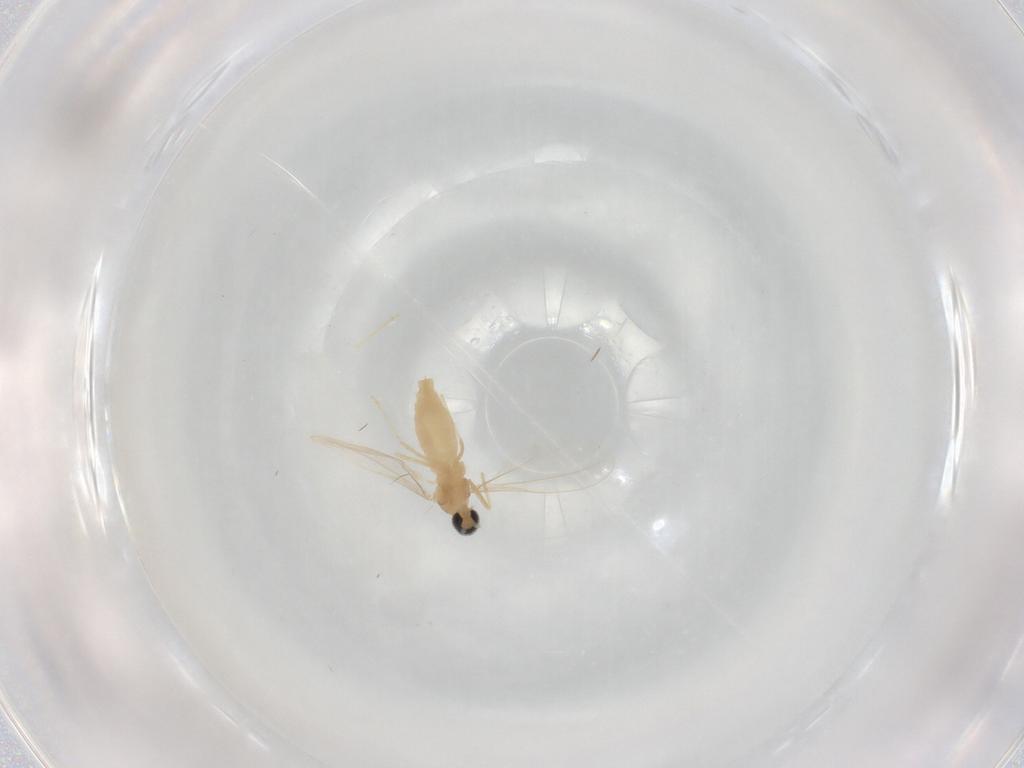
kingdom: Animalia
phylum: Arthropoda
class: Insecta
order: Diptera
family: Cecidomyiidae
